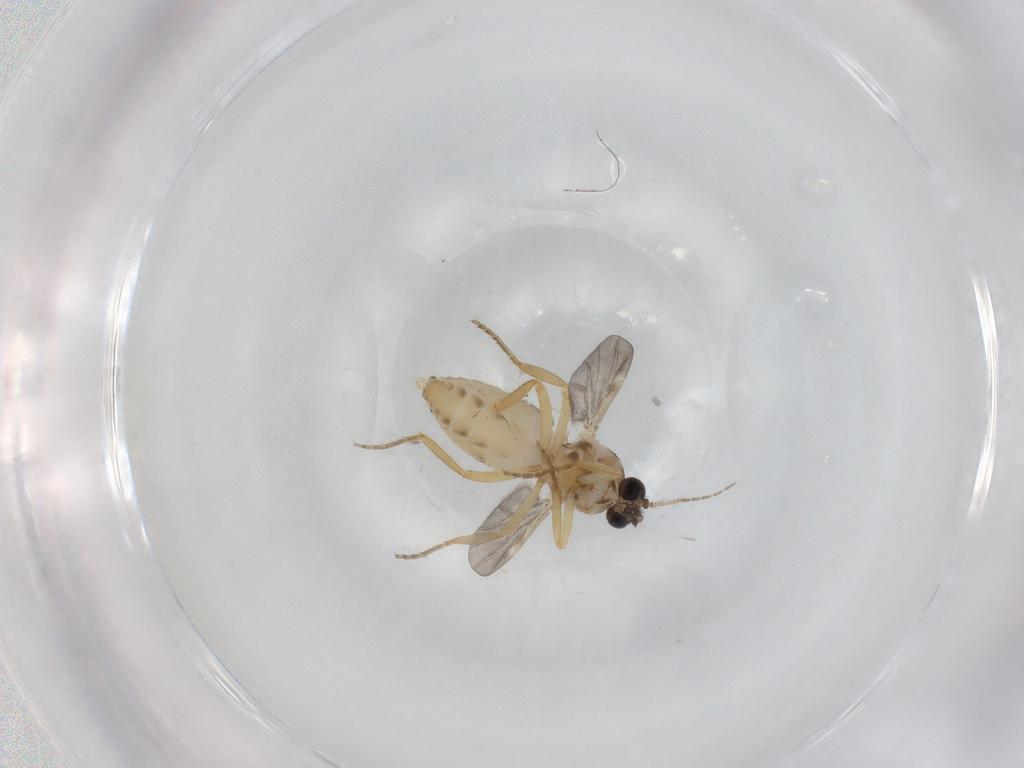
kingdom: Animalia
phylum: Arthropoda
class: Insecta
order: Diptera
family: Ceratopogonidae
